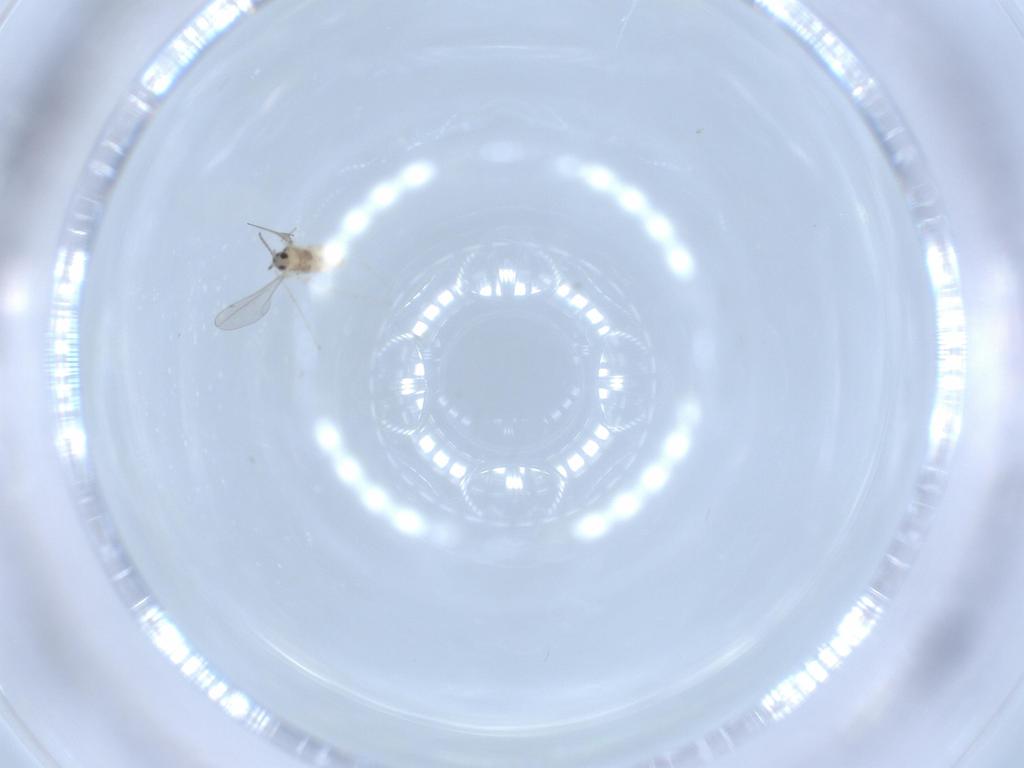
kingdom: Animalia
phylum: Arthropoda
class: Insecta
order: Diptera
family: Cecidomyiidae
